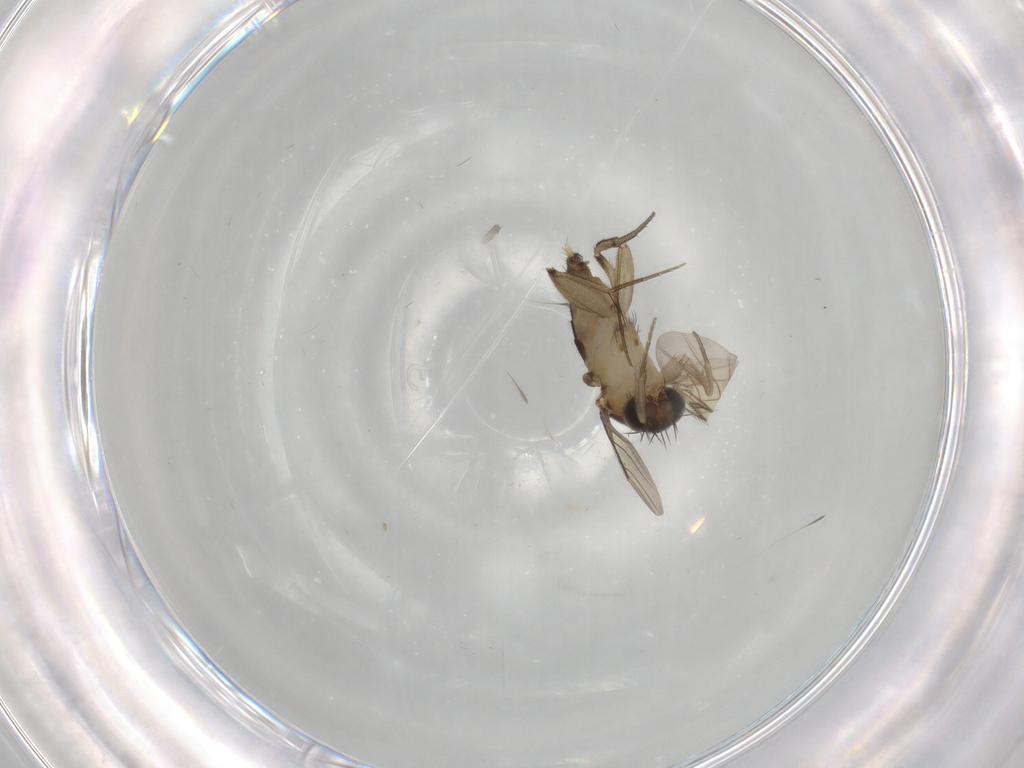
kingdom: Animalia
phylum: Arthropoda
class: Insecta
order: Diptera
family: Phoridae
